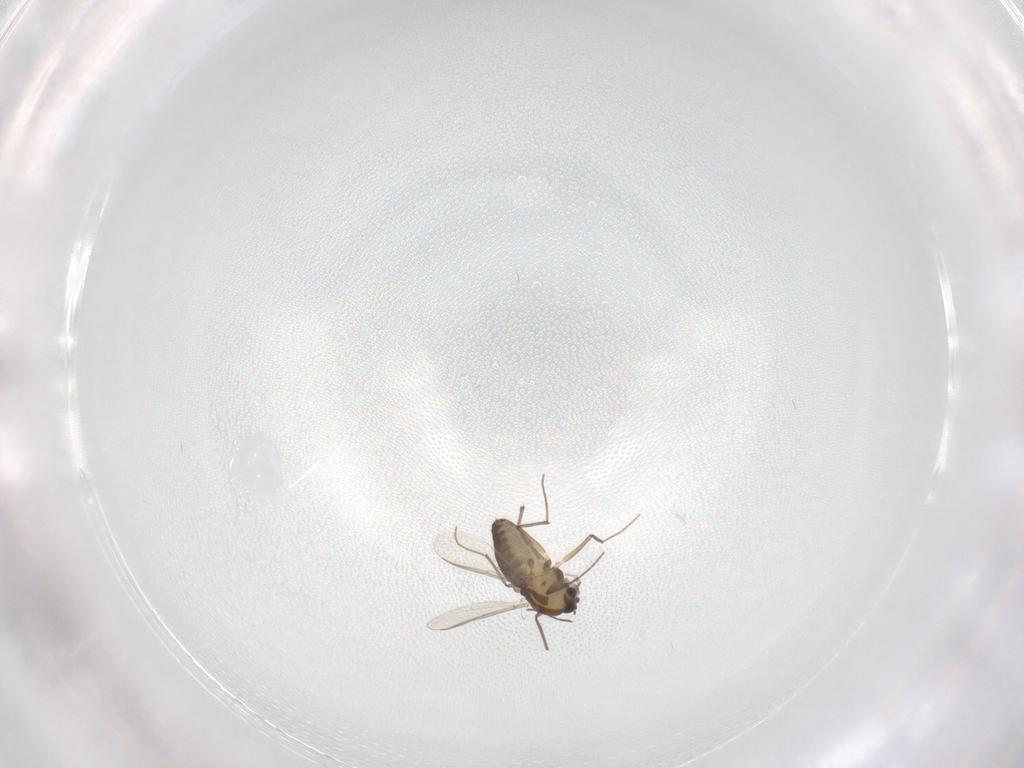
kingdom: Animalia
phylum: Arthropoda
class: Insecta
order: Diptera
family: Chironomidae
